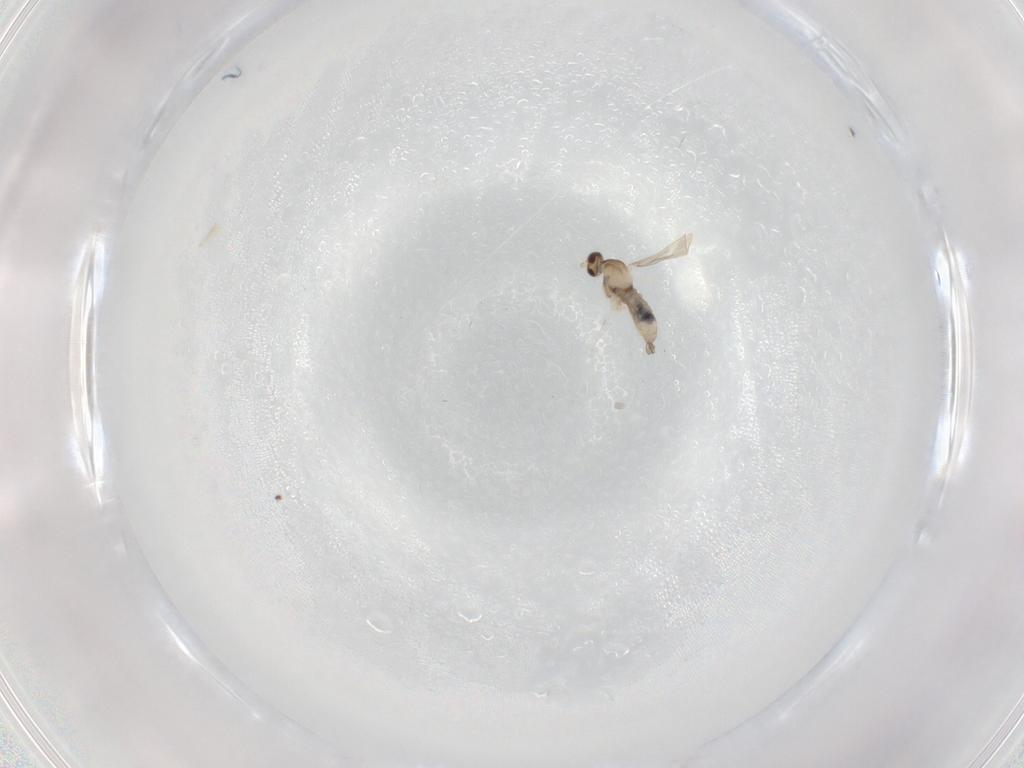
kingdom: Animalia
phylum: Arthropoda
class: Insecta
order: Diptera
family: Cecidomyiidae
